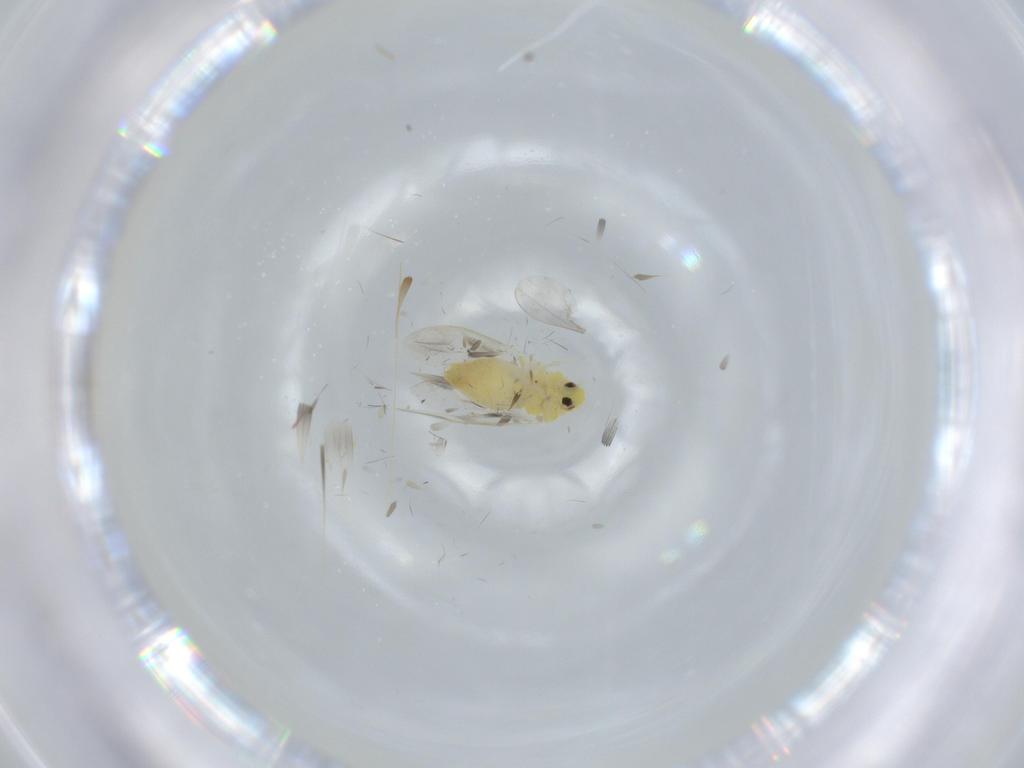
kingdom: Animalia
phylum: Arthropoda
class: Insecta
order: Hemiptera
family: Aleyrodidae
